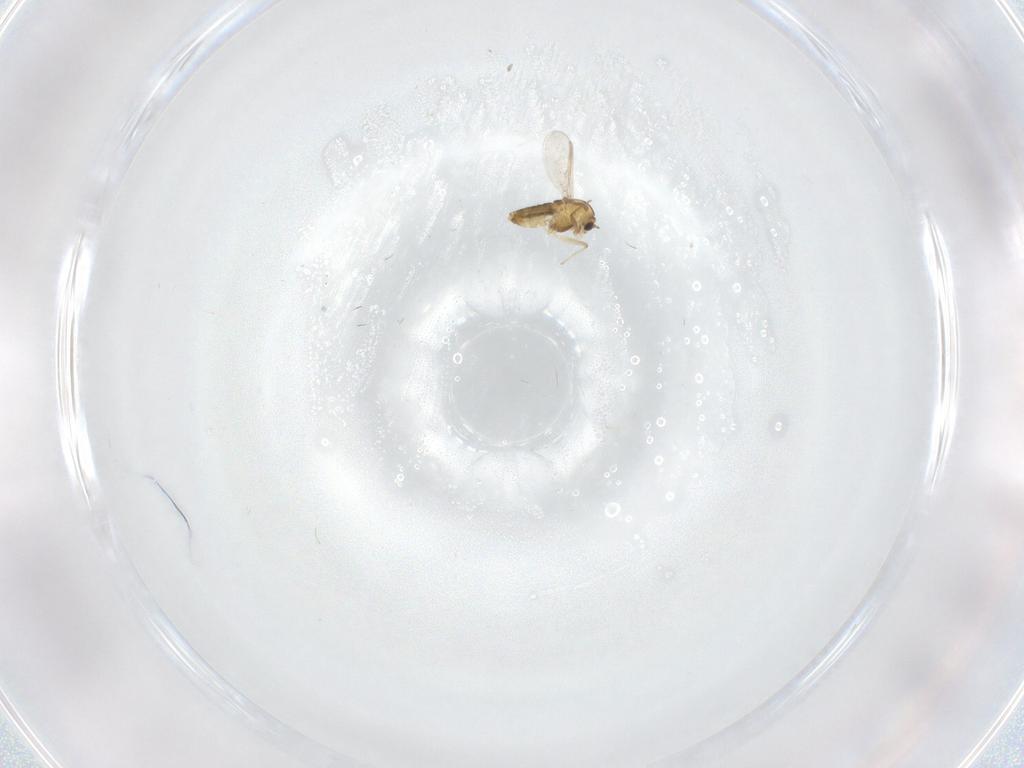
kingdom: Animalia
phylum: Arthropoda
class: Insecta
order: Diptera
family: Chironomidae
